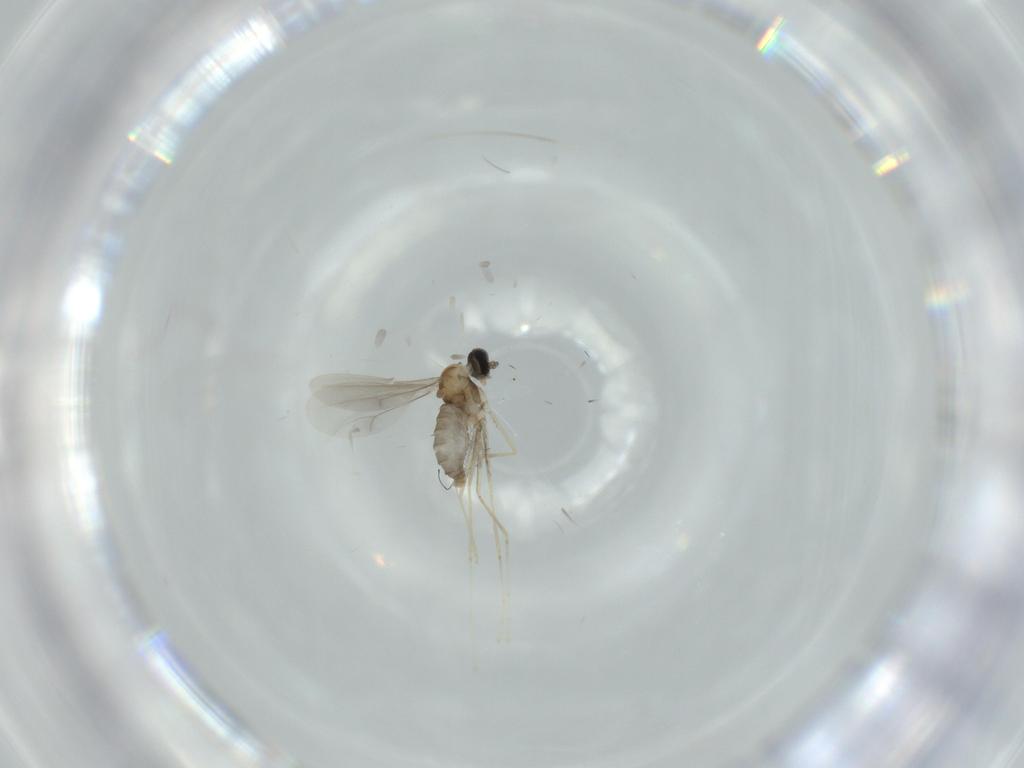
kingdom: Animalia
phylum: Arthropoda
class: Insecta
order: Diptera
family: Cecidomyiidae
